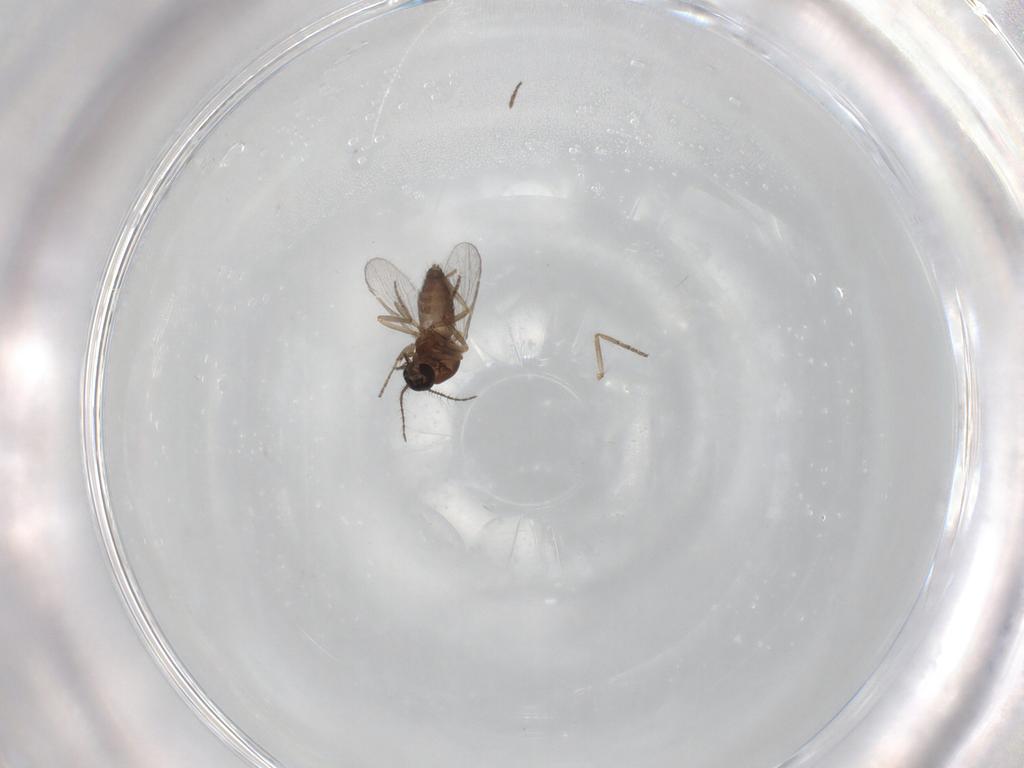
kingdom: Animalia
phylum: Arthropoda
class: Insecta
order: Diptera
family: Ceratopogonidae
